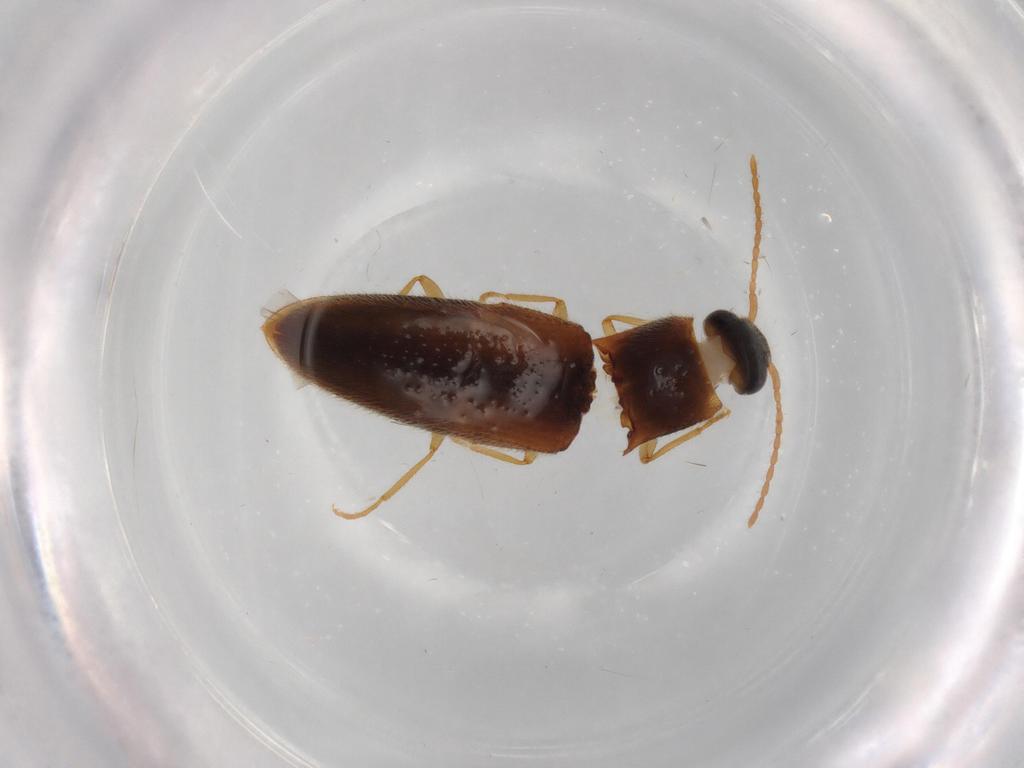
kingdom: Animalia
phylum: Arthropoda
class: Insecta
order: Coleoptera
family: Elateridae
